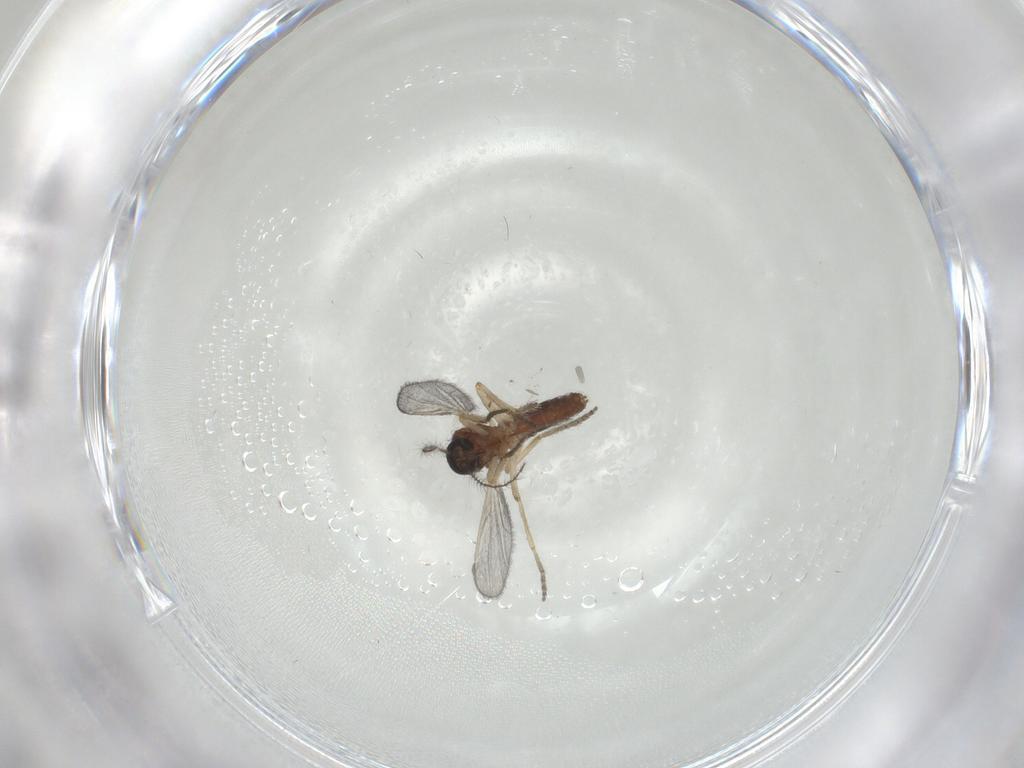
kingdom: Animalia
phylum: Arthropoda
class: Insecta
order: Diptera
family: Ceratopogonidae
